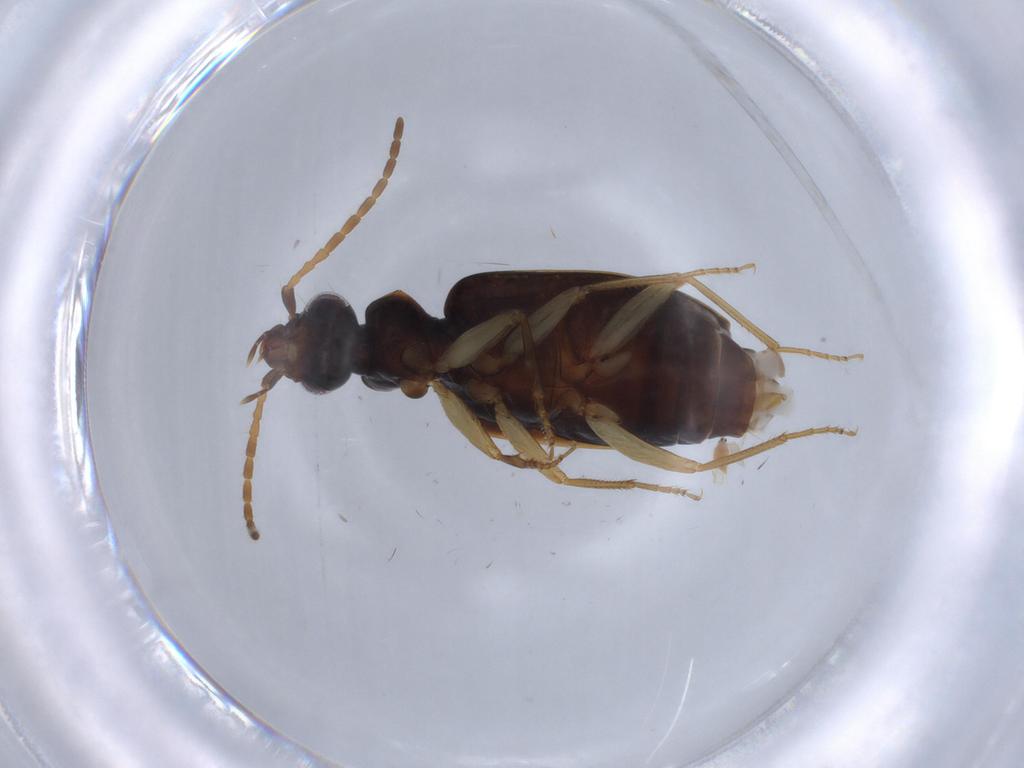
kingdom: Animalia
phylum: Arthropoda
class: Insecta
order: Coleoptera
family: Carabidae
